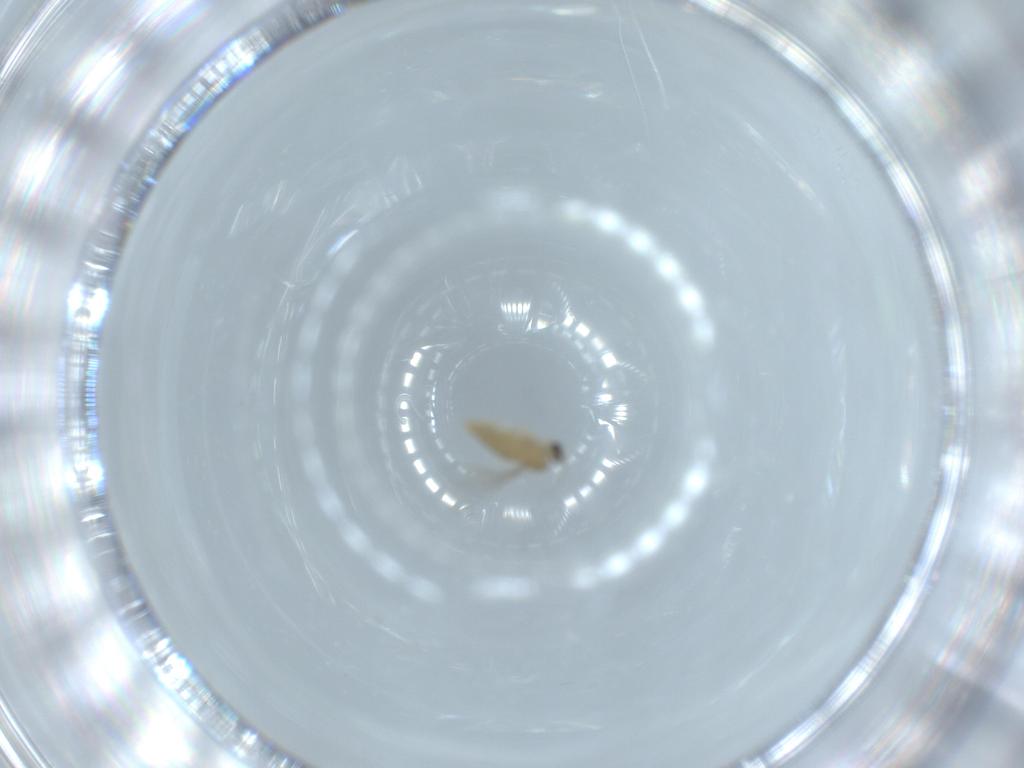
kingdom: Animalia
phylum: Arthropoda
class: Insecta
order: Diptera
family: Cecidomyiidae
